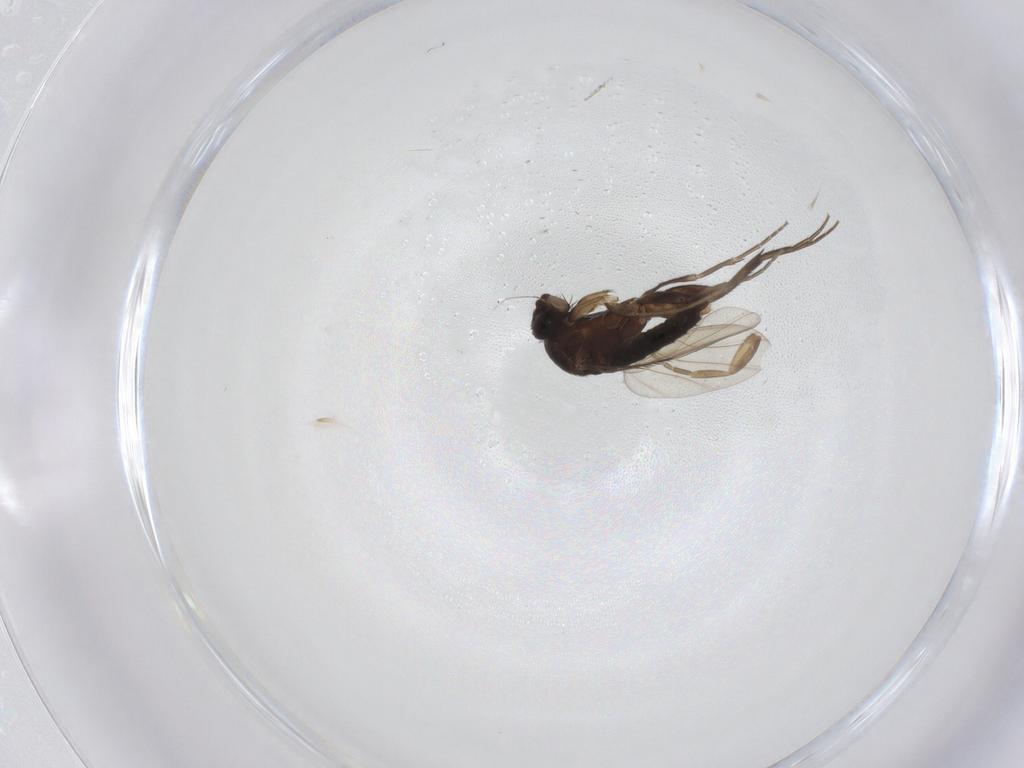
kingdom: Animalia
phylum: Arthropoda
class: Insecta
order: Diptera
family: Phoridae
